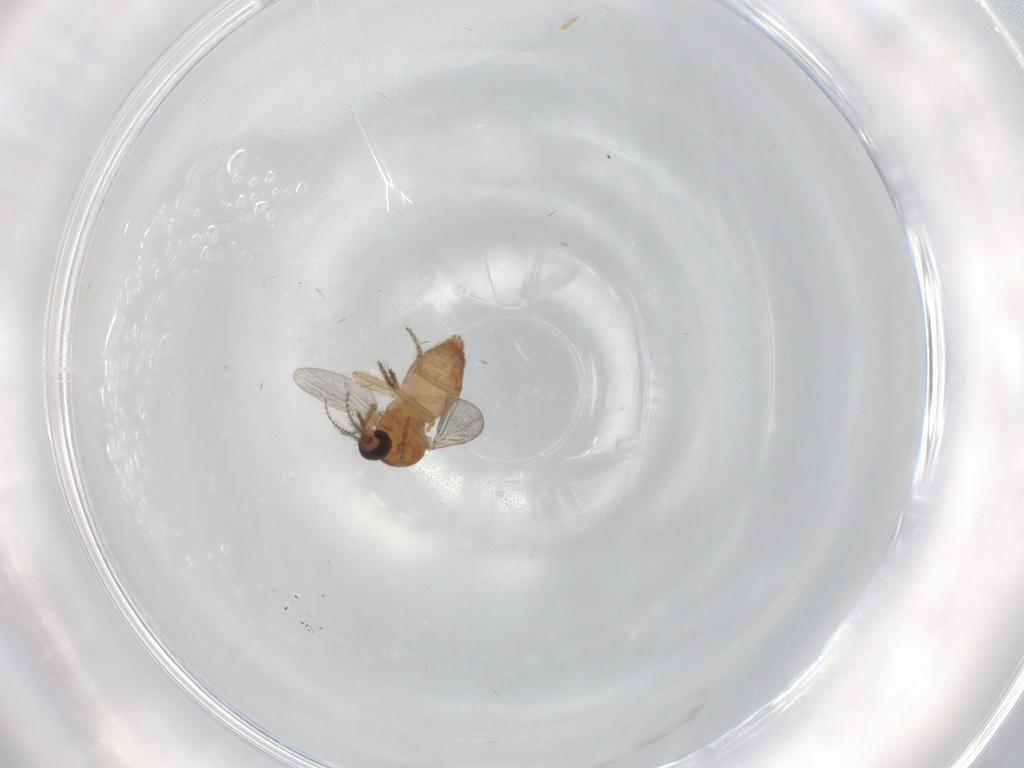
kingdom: Animalia
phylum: Arthropoda
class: Insecta
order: Diptera
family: Ceratopogonidae
